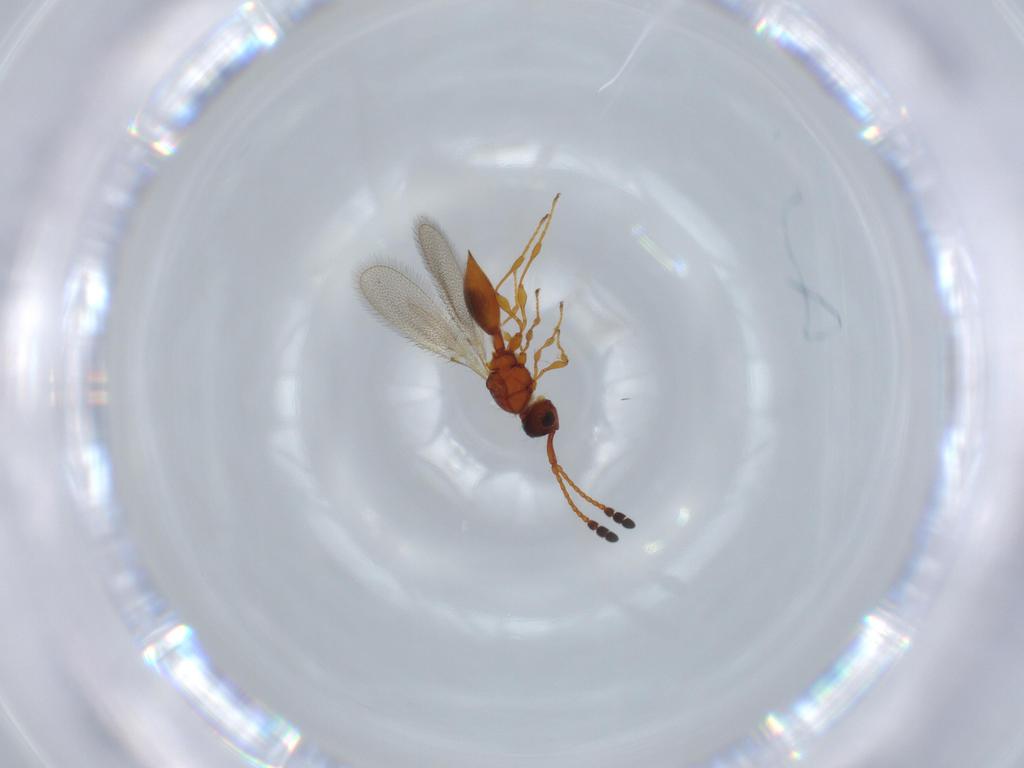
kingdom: Animalia
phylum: Arthropoda
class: Insecta
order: Hymenoptera
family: Diapriidae
